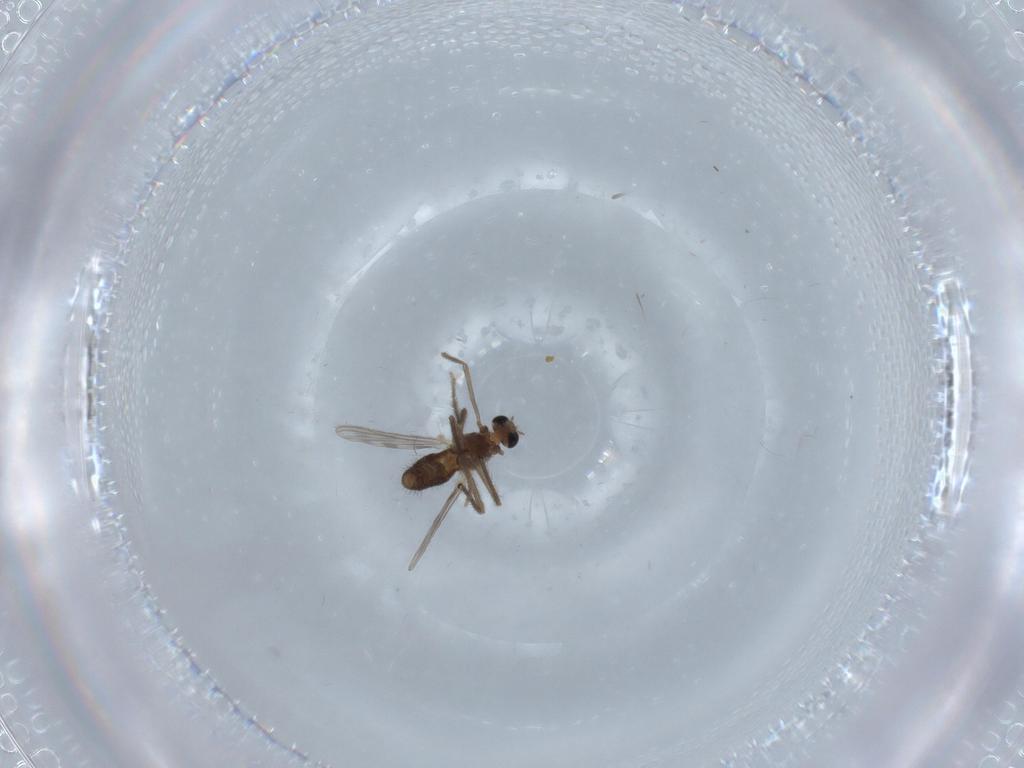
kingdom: Animalia
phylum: Arthropoda
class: Insecta
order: Diptera
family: Chironomidae
